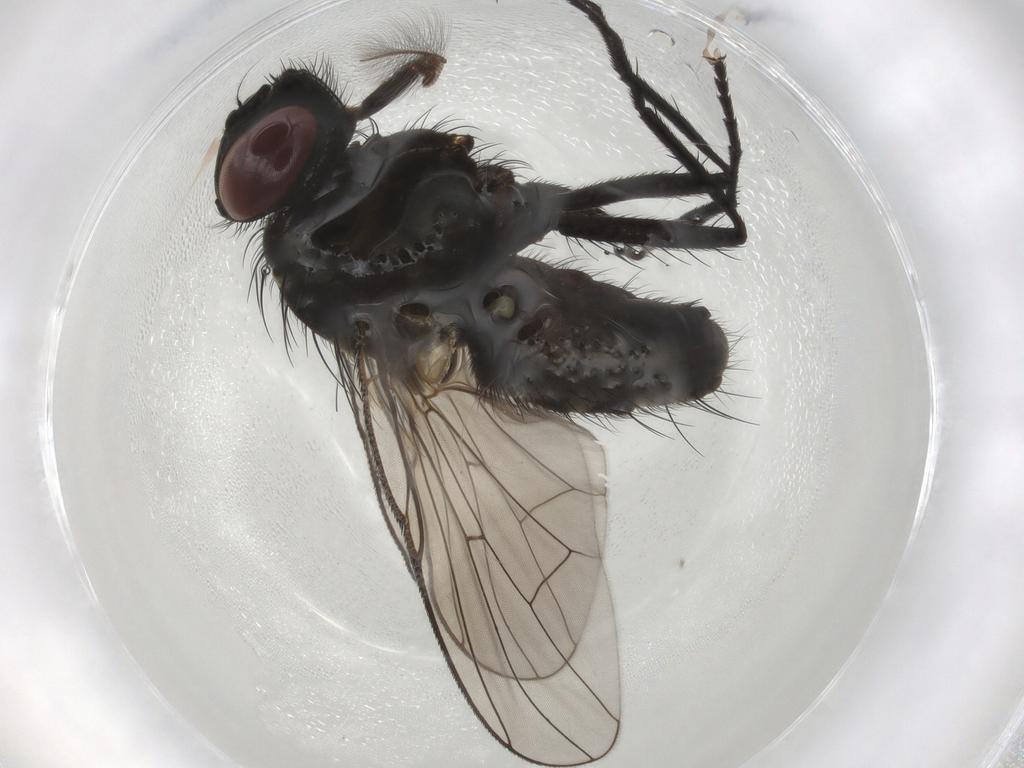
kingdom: Animalia
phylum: Arthropoda
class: Insecta
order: Diptera
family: Muscidae
